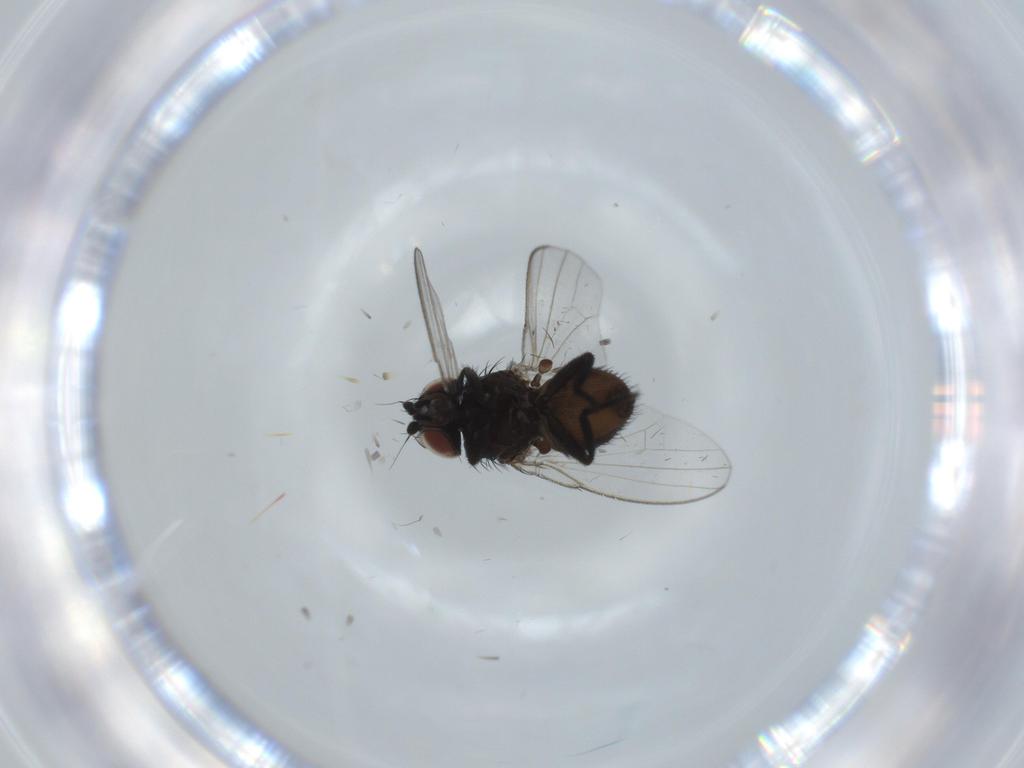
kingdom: Animalia
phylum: Arthropoda
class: Insecta
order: Diptera
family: Milichiidae
